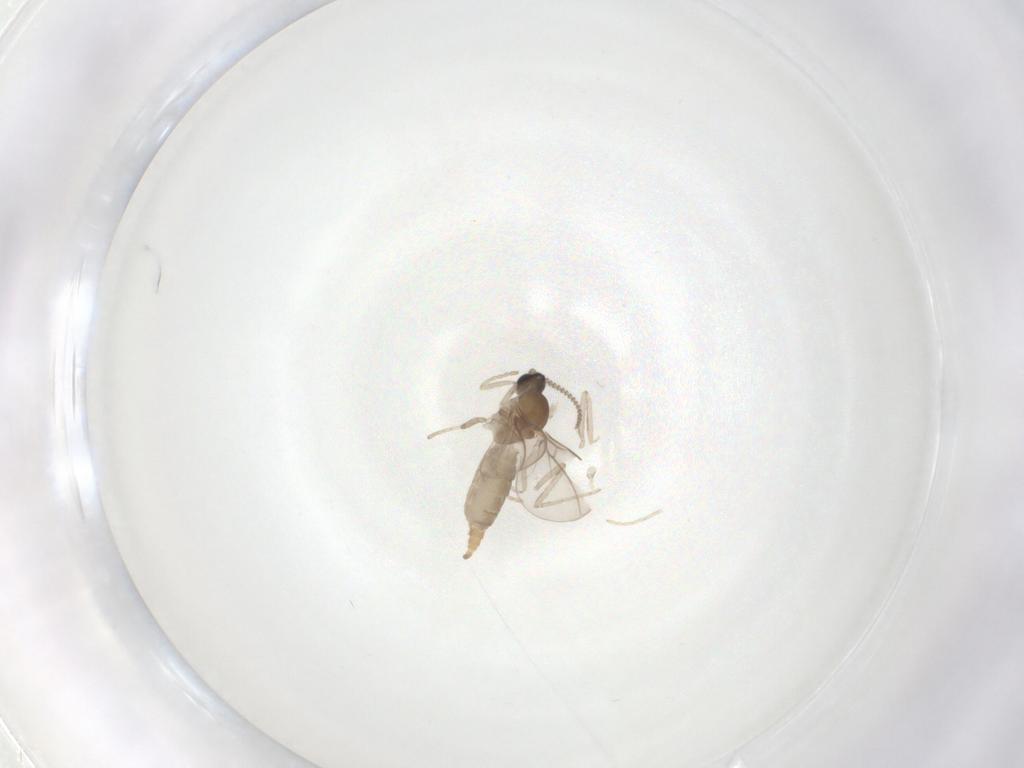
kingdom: Animalia
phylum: Arthropoda
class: Insecta
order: Diptera
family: Cecidomyiidae
